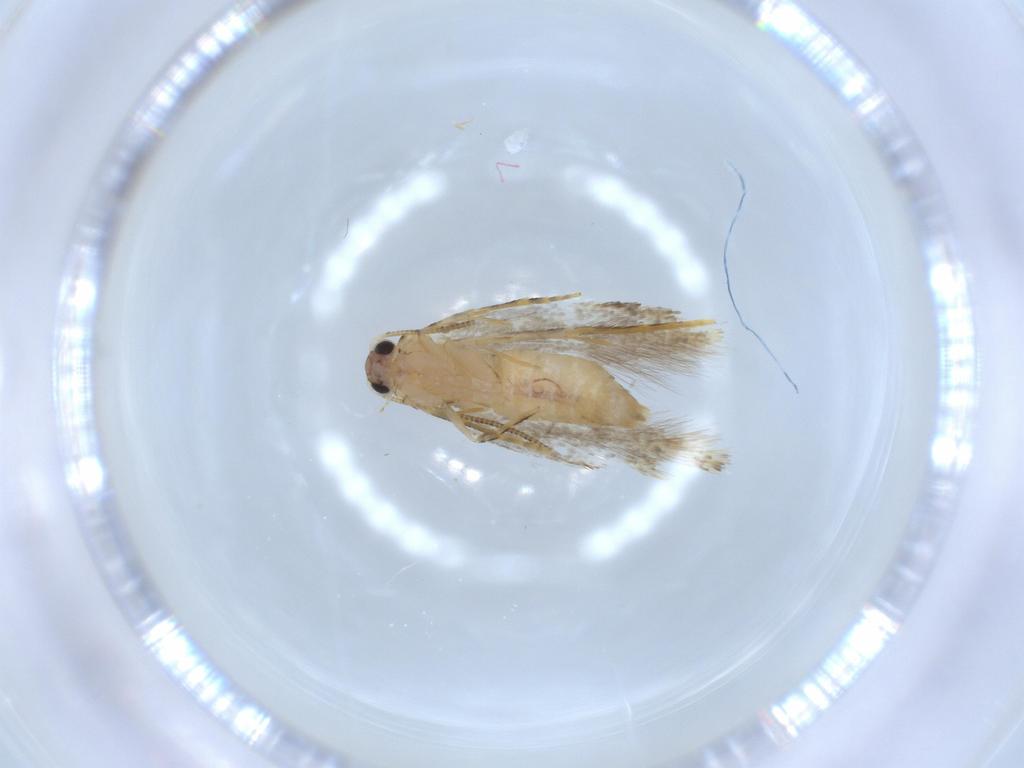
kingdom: Animalia
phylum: Arthropoda
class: Insecta
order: Lepidoptera
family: Tineidae
